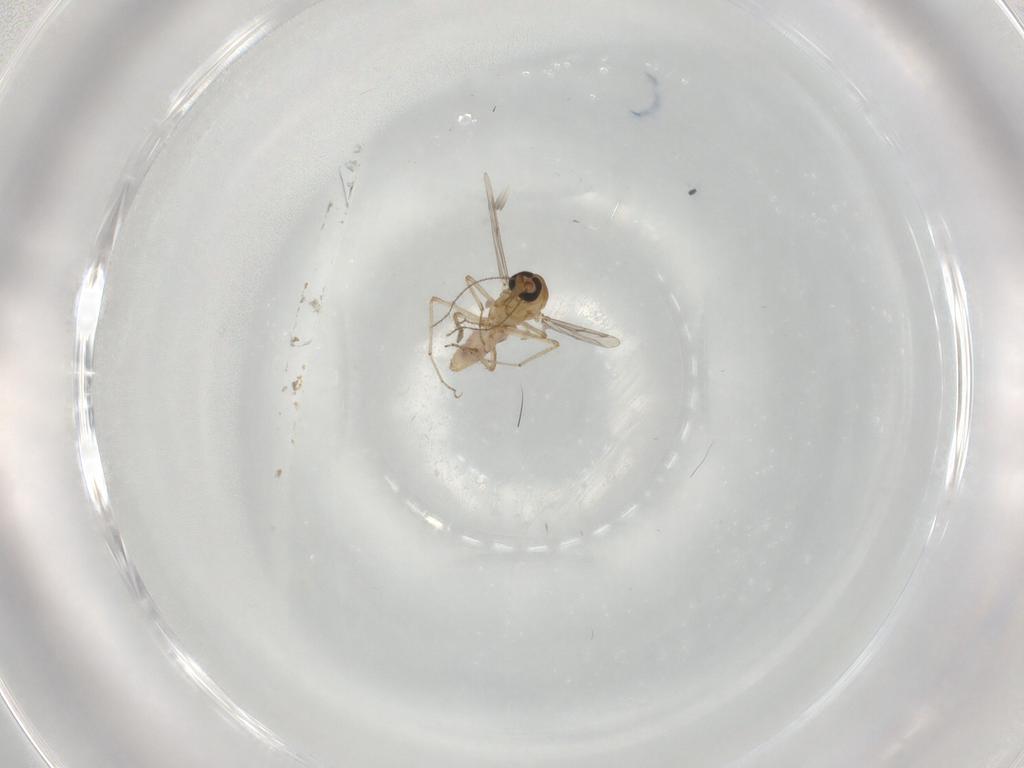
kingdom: Animalia
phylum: Arthropoda
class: Insecta
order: Diptera
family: Ceratopogonidae
